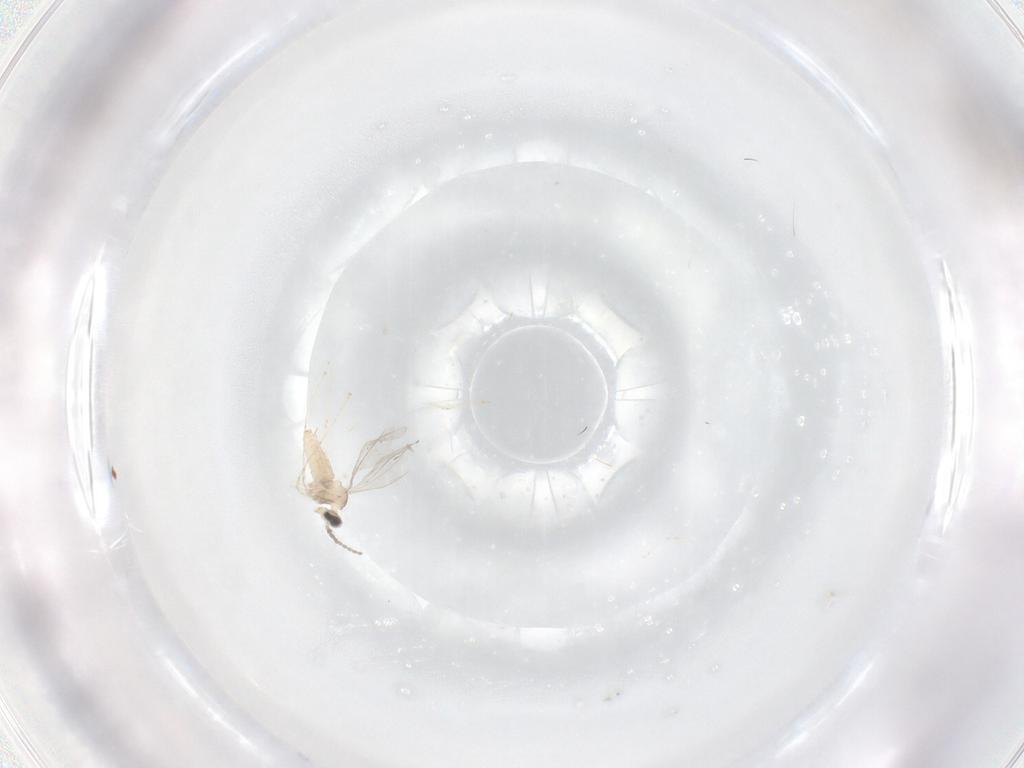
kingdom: Animalia
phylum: Arthropoda
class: Insecta
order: Diptera
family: Cecidomyiidae
